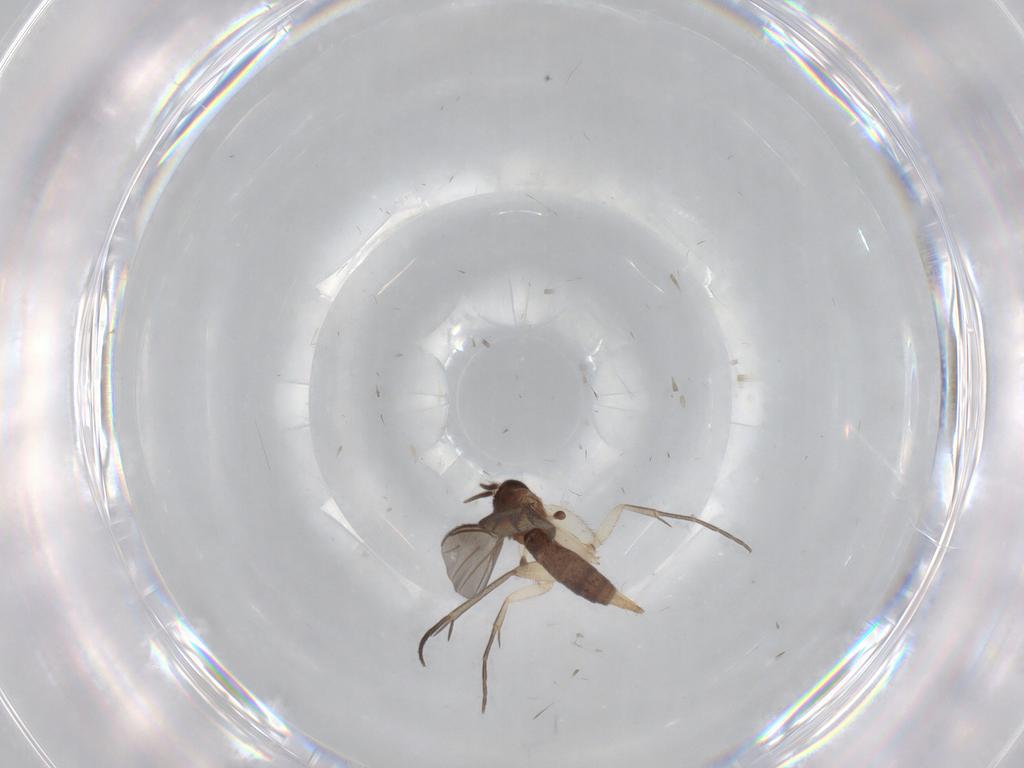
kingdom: Animalia
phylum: Arthropoda
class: Insecta
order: Diptera
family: Mycetophilidae
